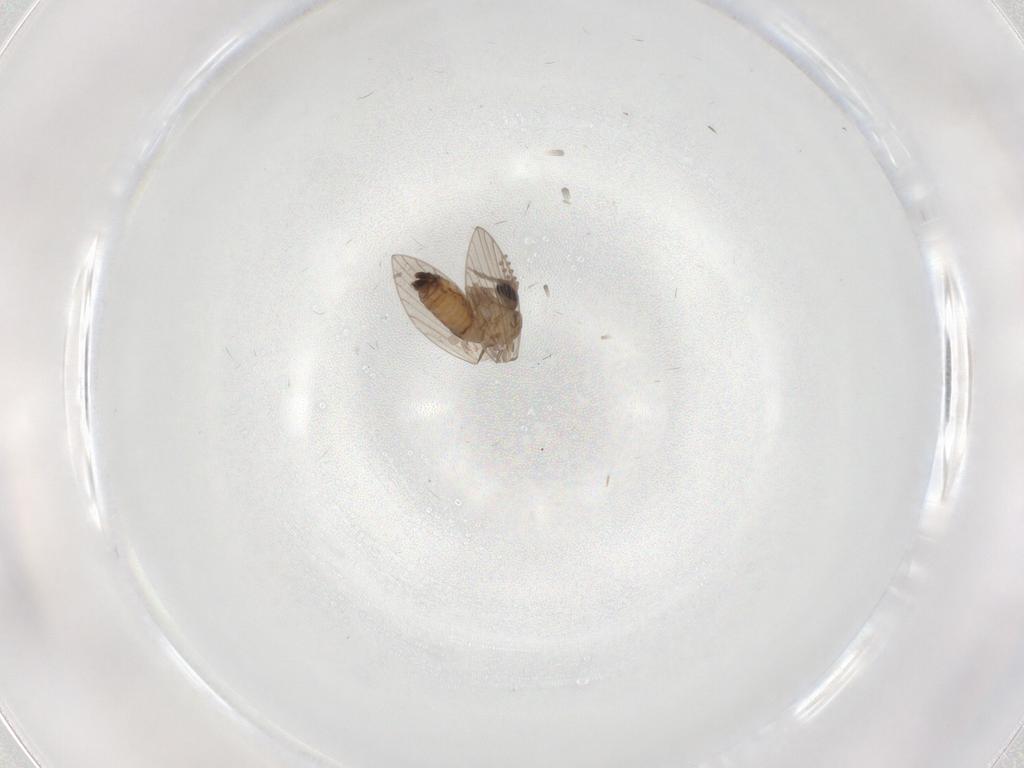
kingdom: Animalia
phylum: Arthropoda
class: Insecta
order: Diptera
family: Psychodidae
